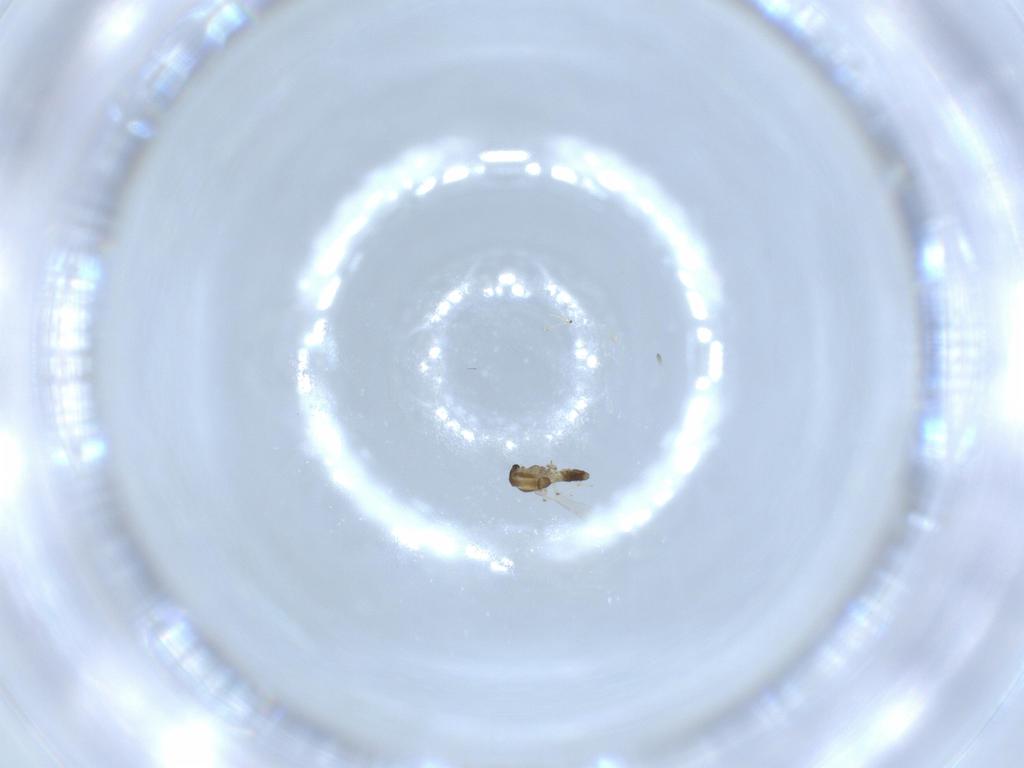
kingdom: Animalia
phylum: Arthropoda
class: Insecta
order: Diptera
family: Chironomidae
